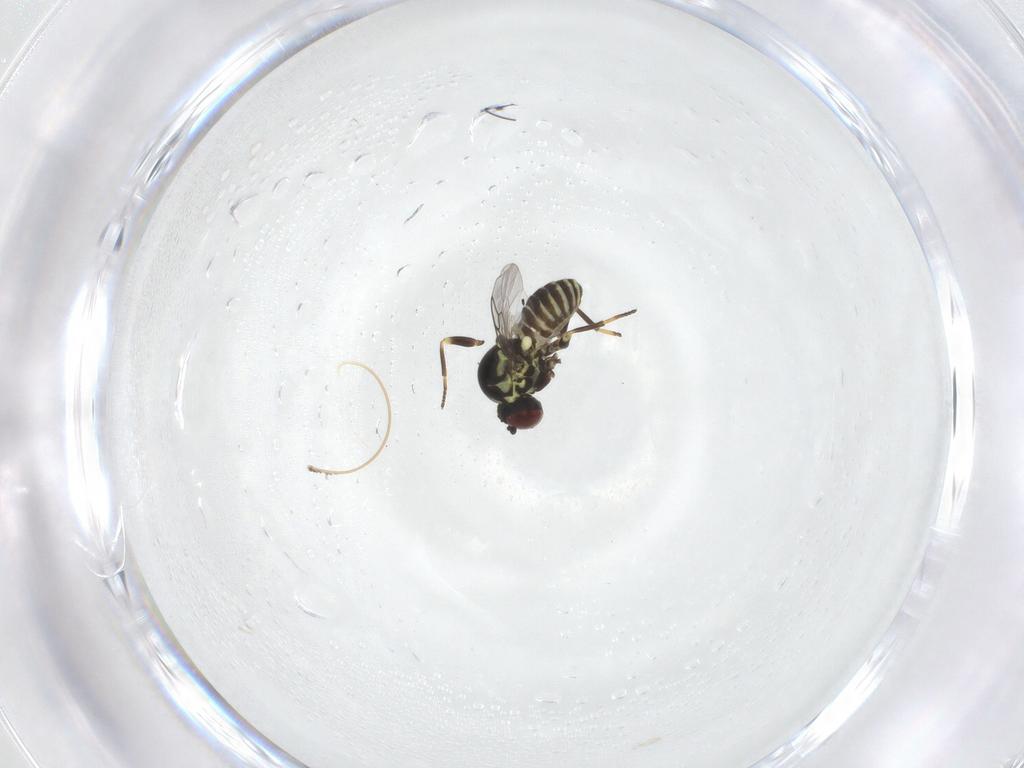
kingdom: Animalia
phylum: Arthropoda
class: Insecta
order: Diptera
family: Mythicomyiidae
